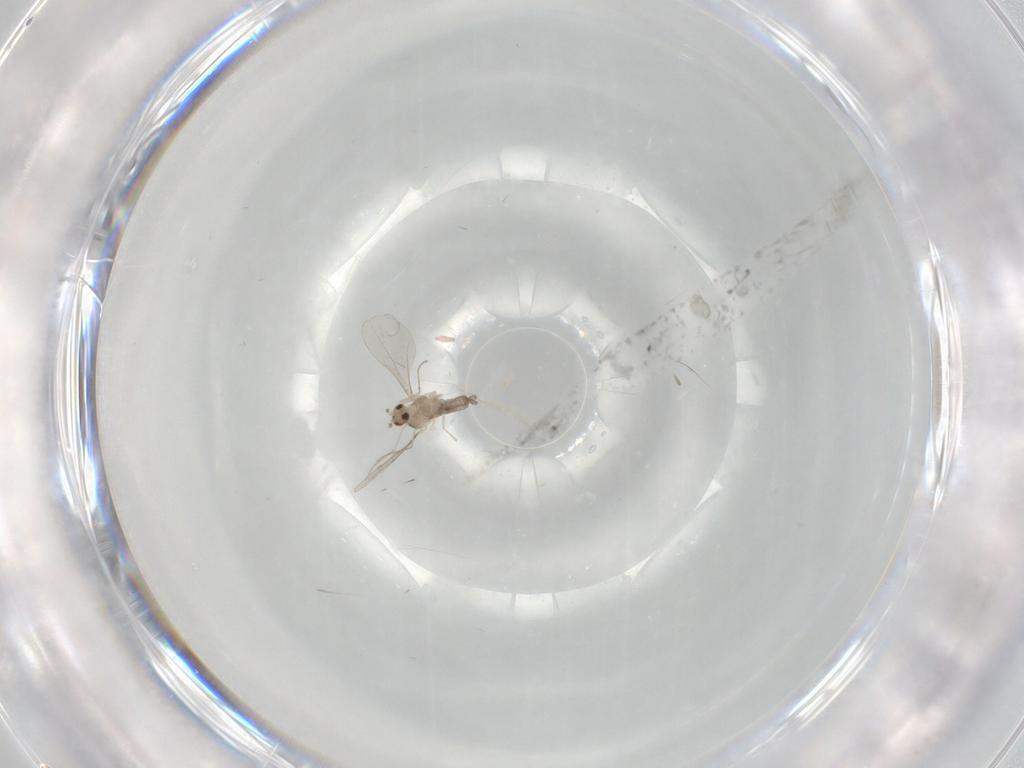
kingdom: Animalia
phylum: Arthropoda
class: Insecta
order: Diptera
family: Cecidomyiidae
